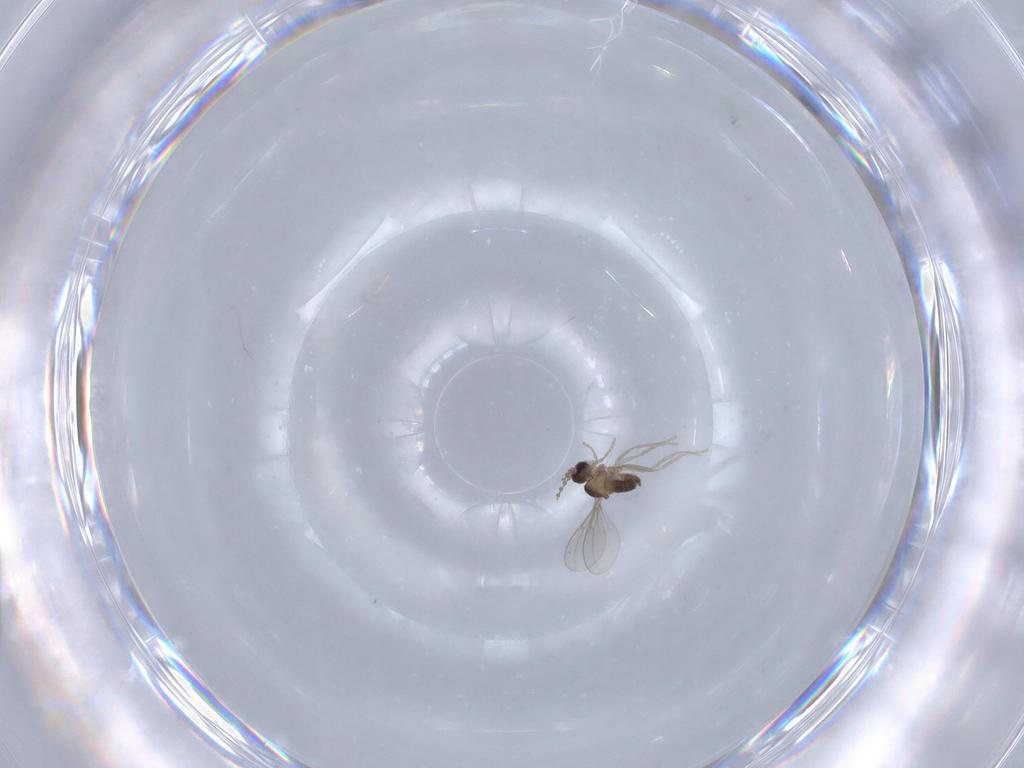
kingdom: Animalia
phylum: Arthropoda
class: Insecta
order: Diptera
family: Cecidomyiidae
